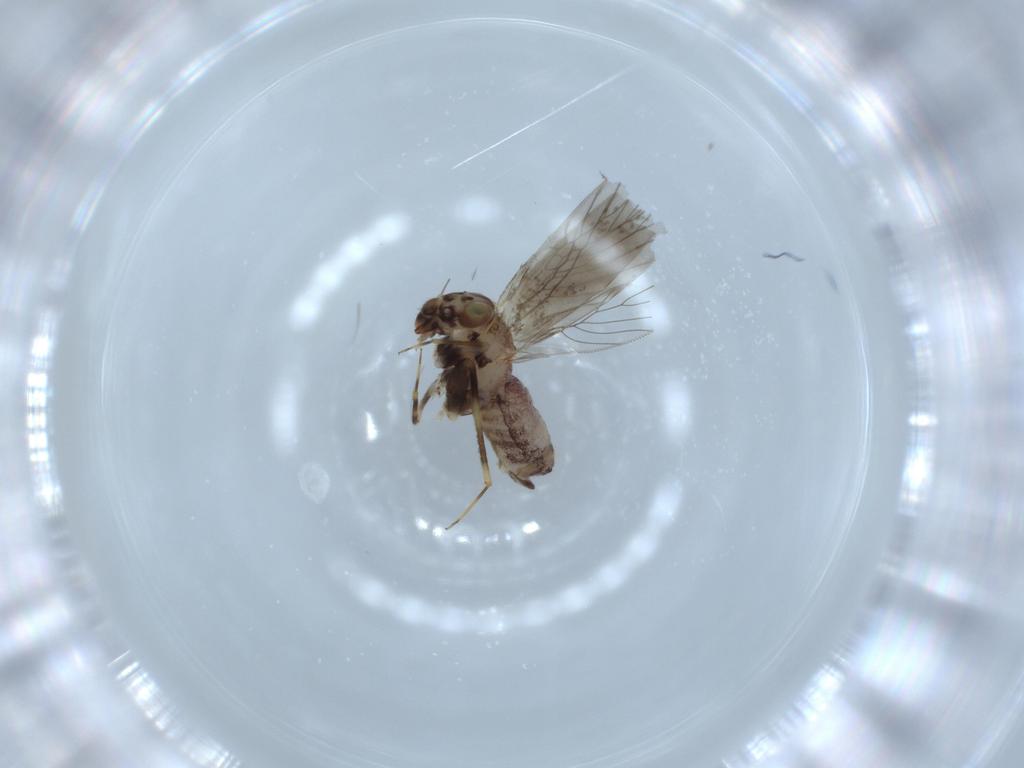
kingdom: Animalia
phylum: Arthropoda
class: Insecta
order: Psocodea
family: Lepidopsocidae
